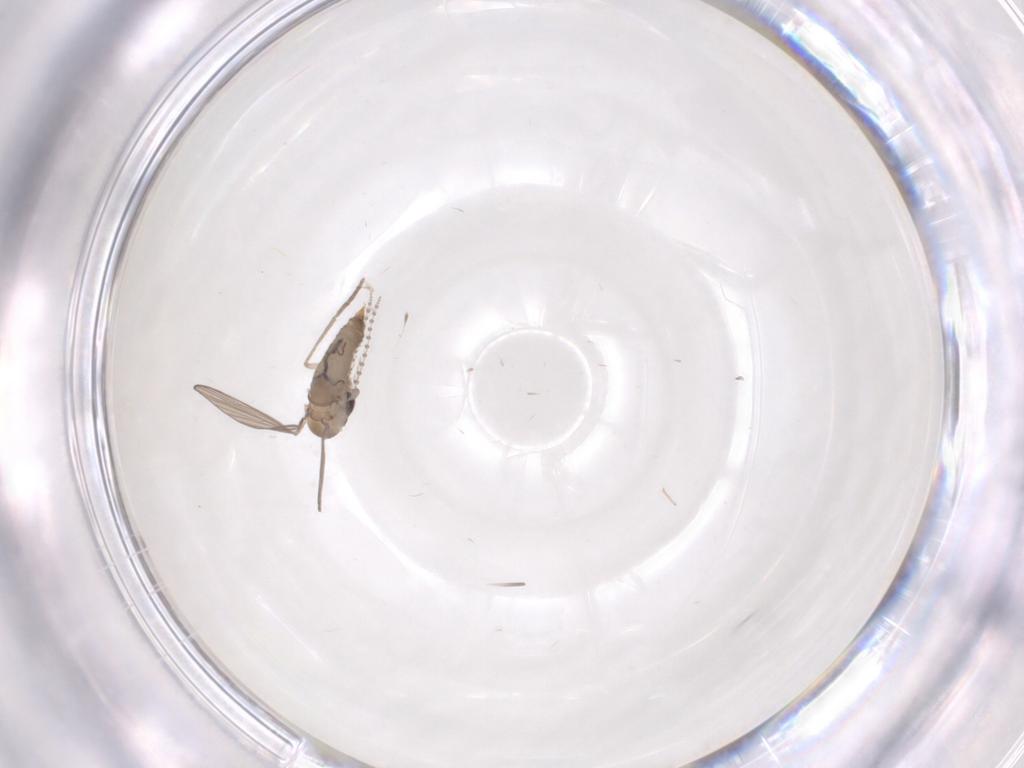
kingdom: Animalia
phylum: Arthropoda
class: Insecta
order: Diptera
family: Psychodidae
